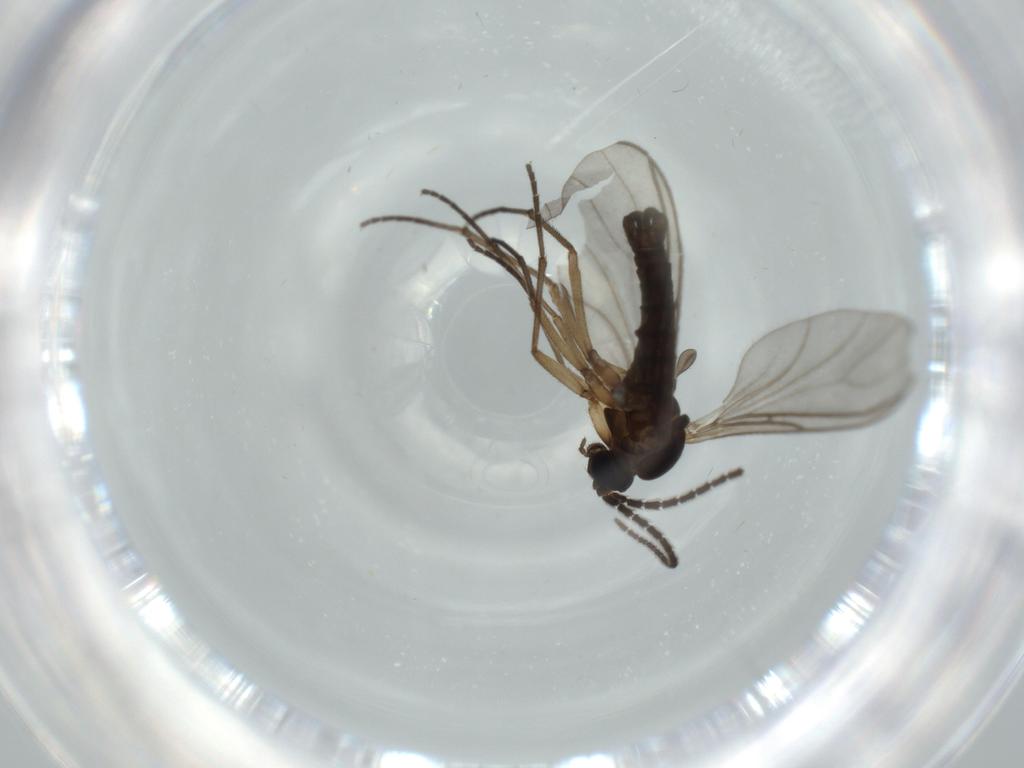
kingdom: Animalia
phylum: Arthropoda
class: Insecta
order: Diptera
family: Sciaridae
